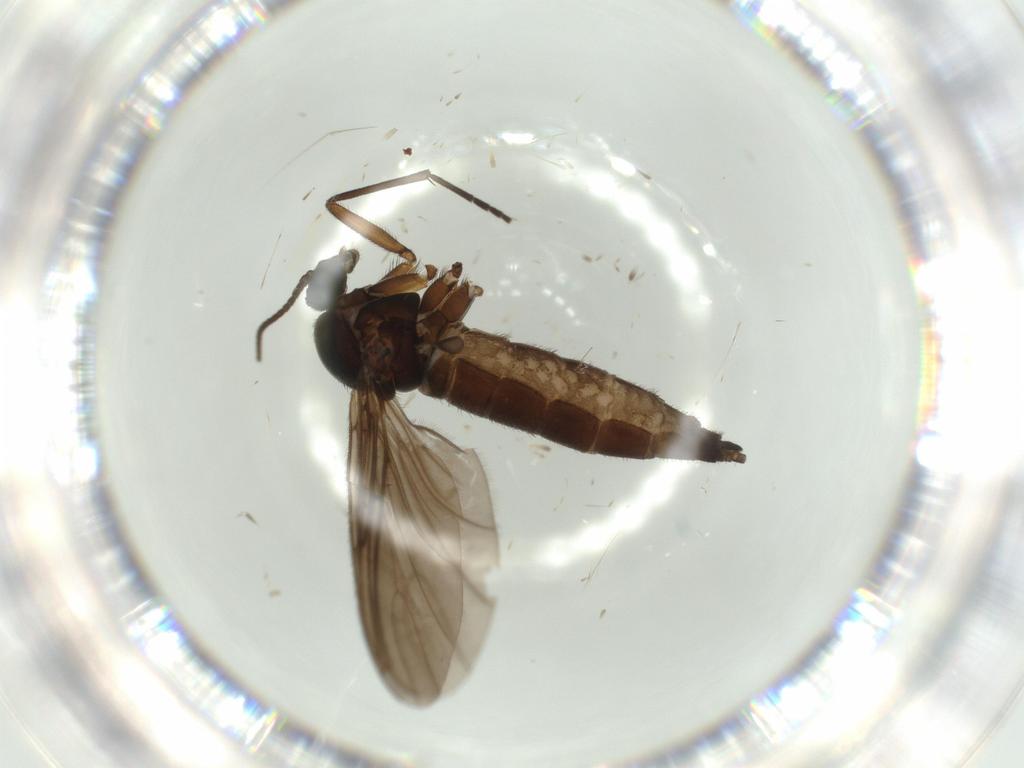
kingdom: Animalia
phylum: Arthropoda
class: Insecta
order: Diptera
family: Sciaridae
